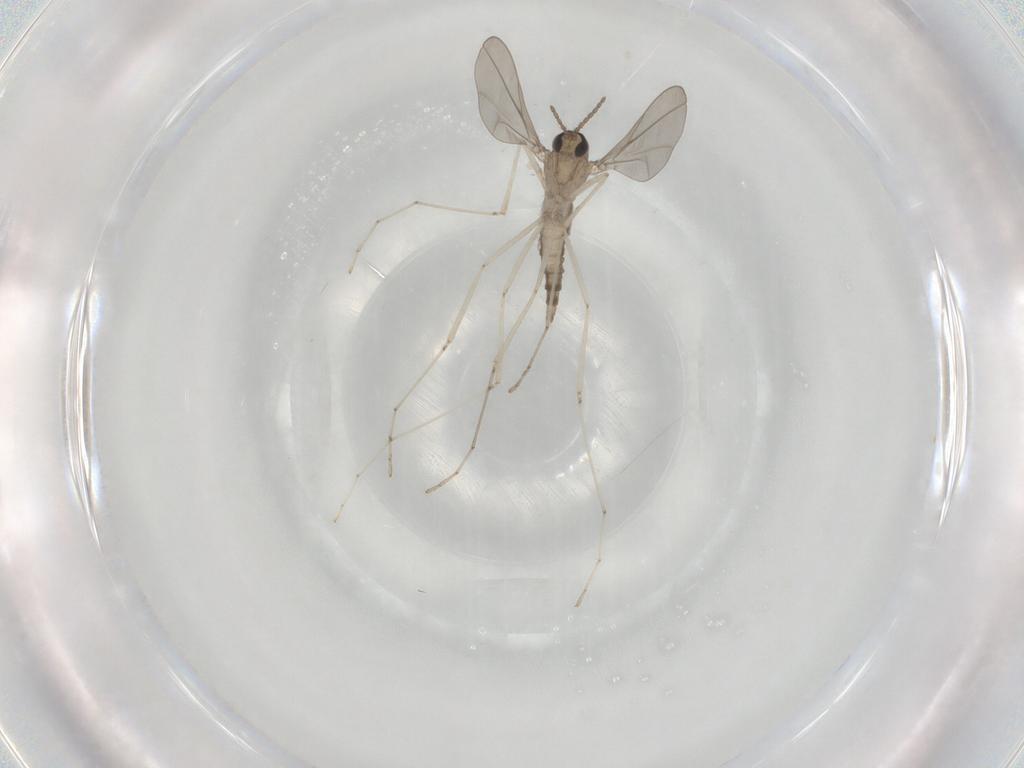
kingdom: Animalia
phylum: Arthropoda
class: Insecta
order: Diptera
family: Cecidomyiidae
